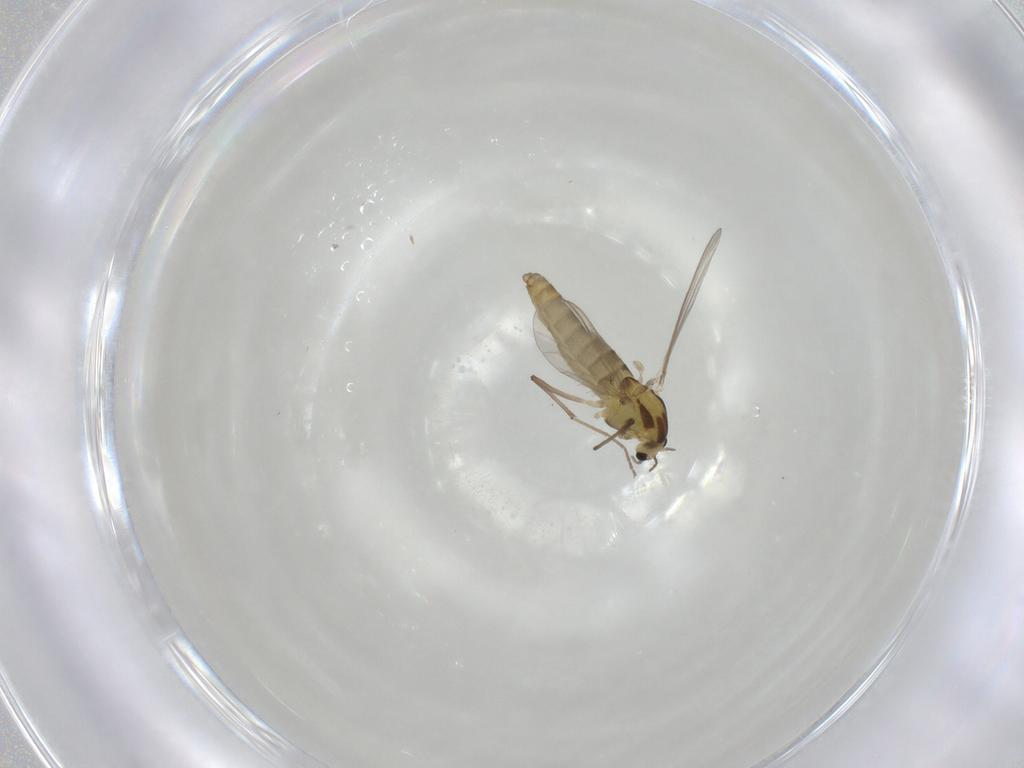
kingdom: Animalia
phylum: Arthropoda
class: Insecta
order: Diptera
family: Chironomidae
